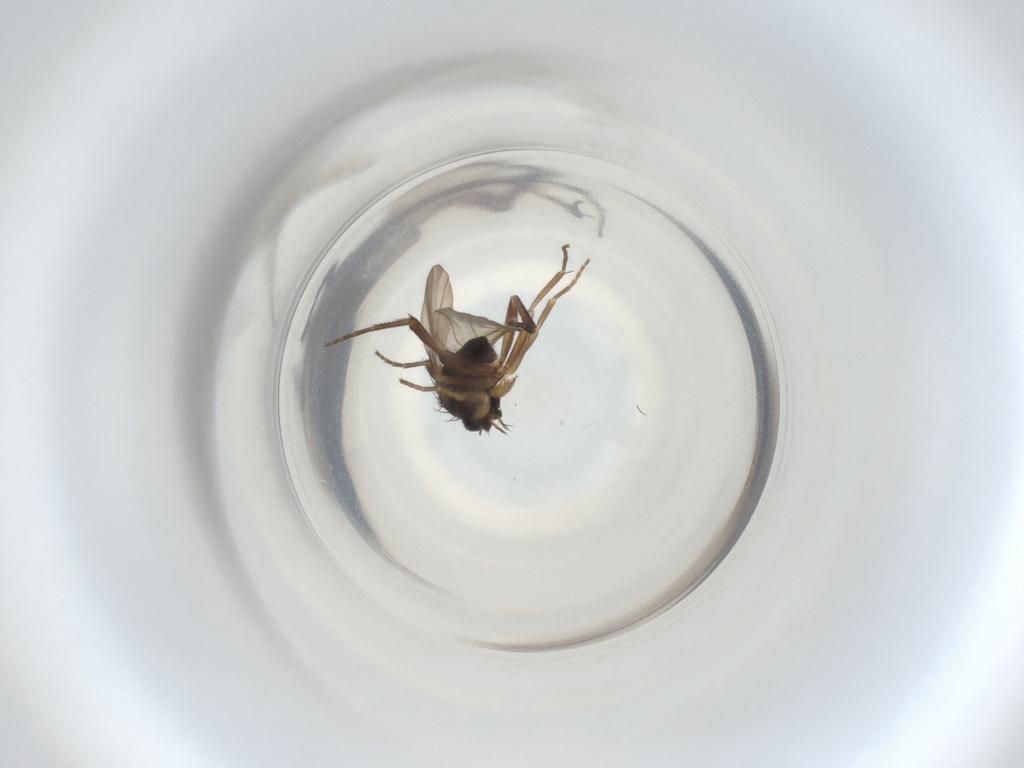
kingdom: Animalia
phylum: Arthropoda
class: Insecta
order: Diptera
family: Phoridae
